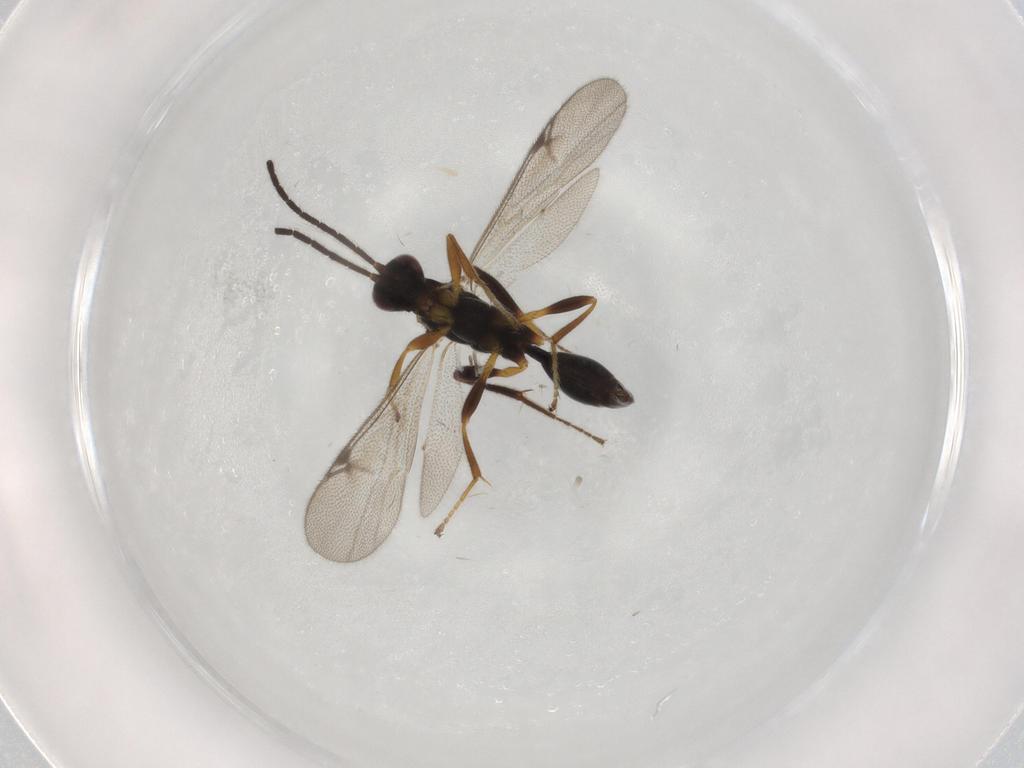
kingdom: Animalia
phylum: Arthropoda
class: Insecta
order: Hymenoptera
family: Proctotrupidae
